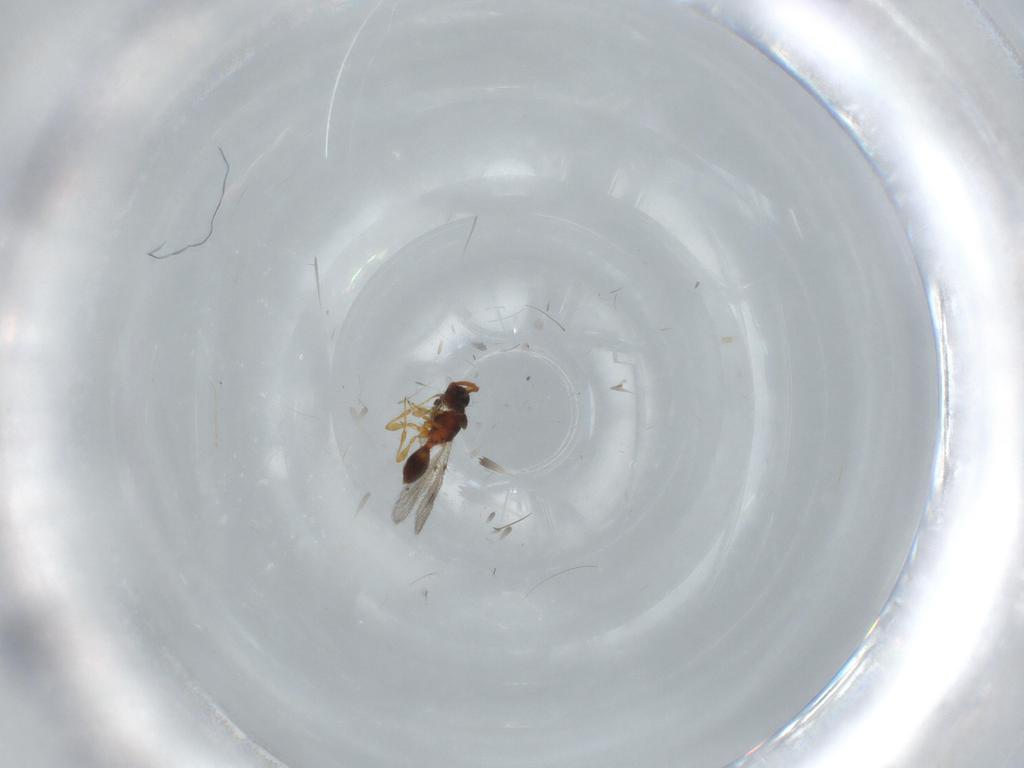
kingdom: Animalia
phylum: Arthropoda
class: Insecta
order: Hymenoptera
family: Diapriidae
